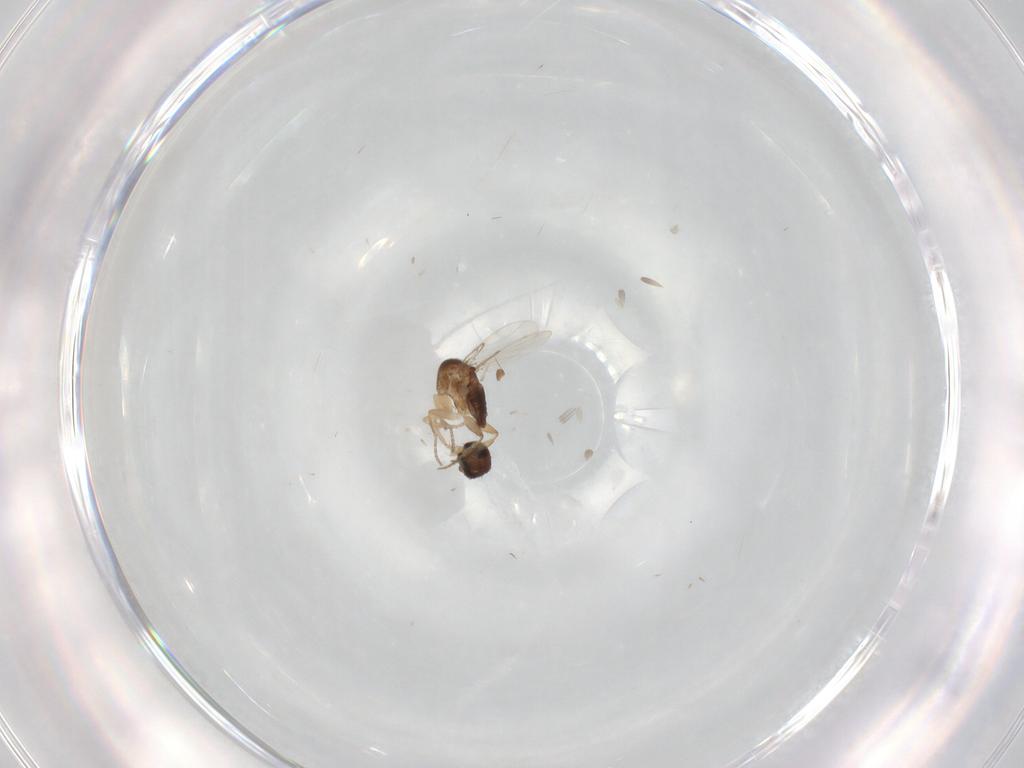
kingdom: Animalia
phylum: Arthropoda
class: Insecta
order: Diptera
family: Phoridae
